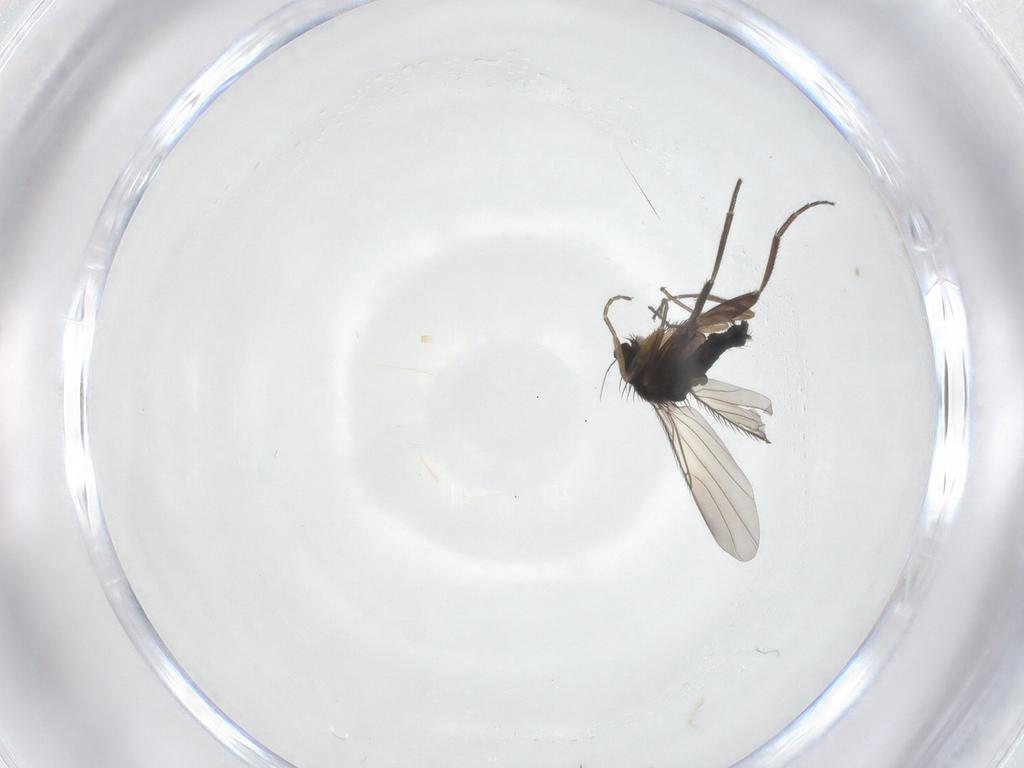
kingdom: Animalia
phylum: Arthropoda
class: Insecta
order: Diptera
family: Phoridae
